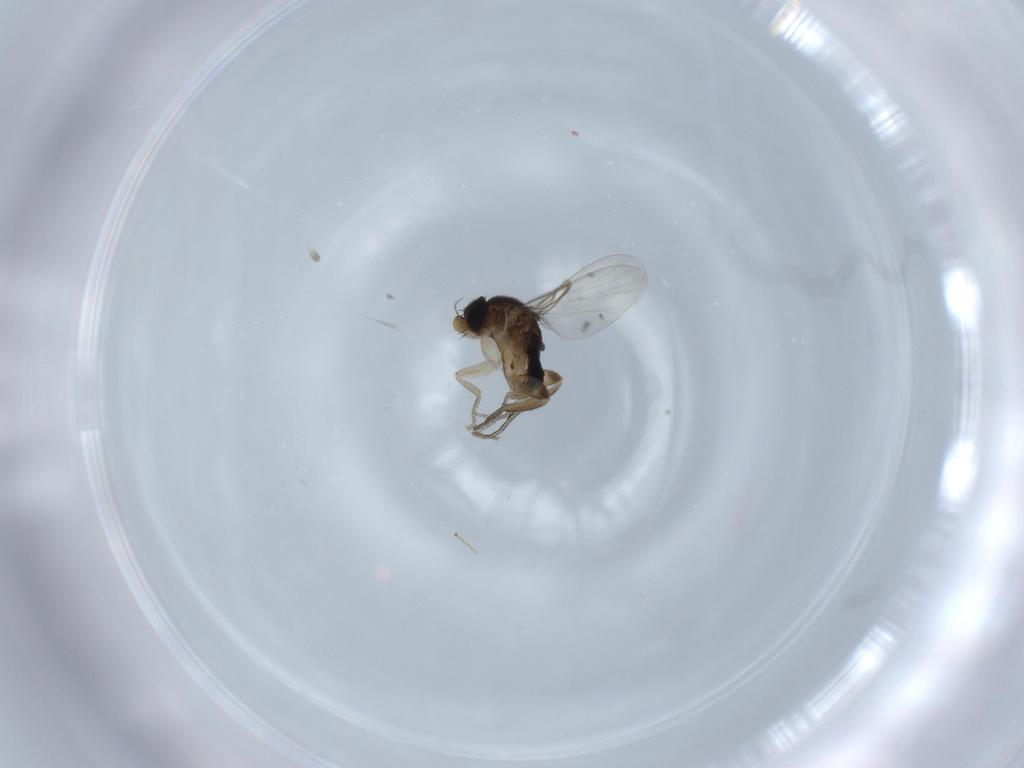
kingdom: Animalia
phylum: Arthropoda
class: Insecta
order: Diptera
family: Phoridae
